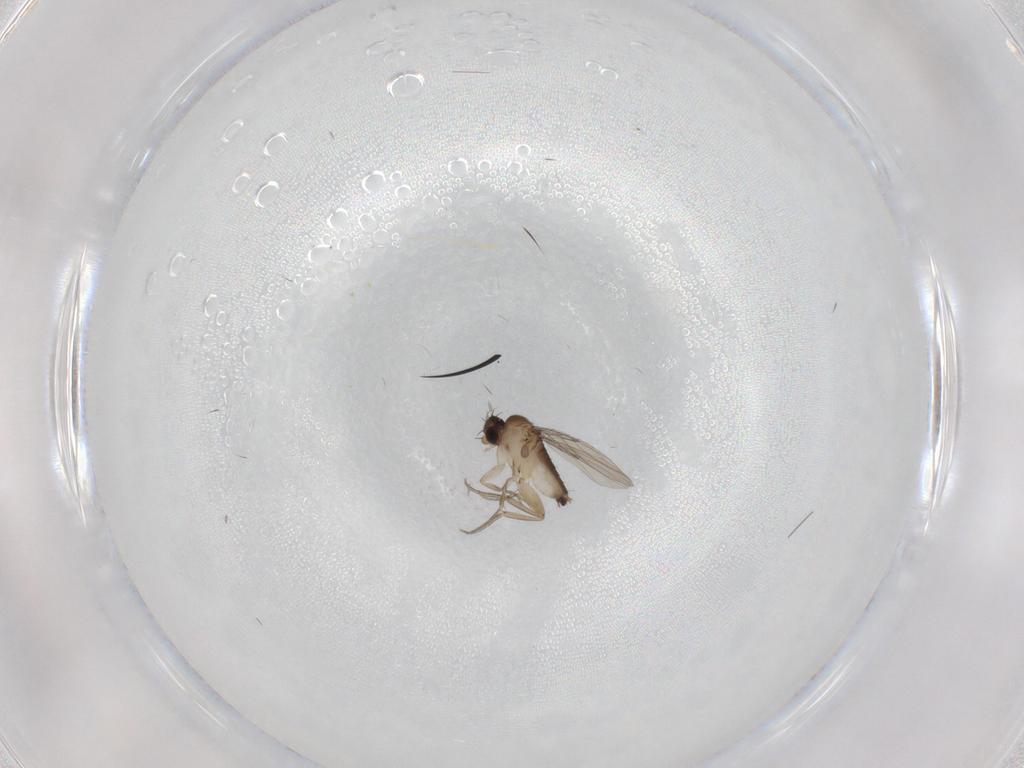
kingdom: Animalia
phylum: Arthropoda
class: Insecta
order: Diptera
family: Phoridae
